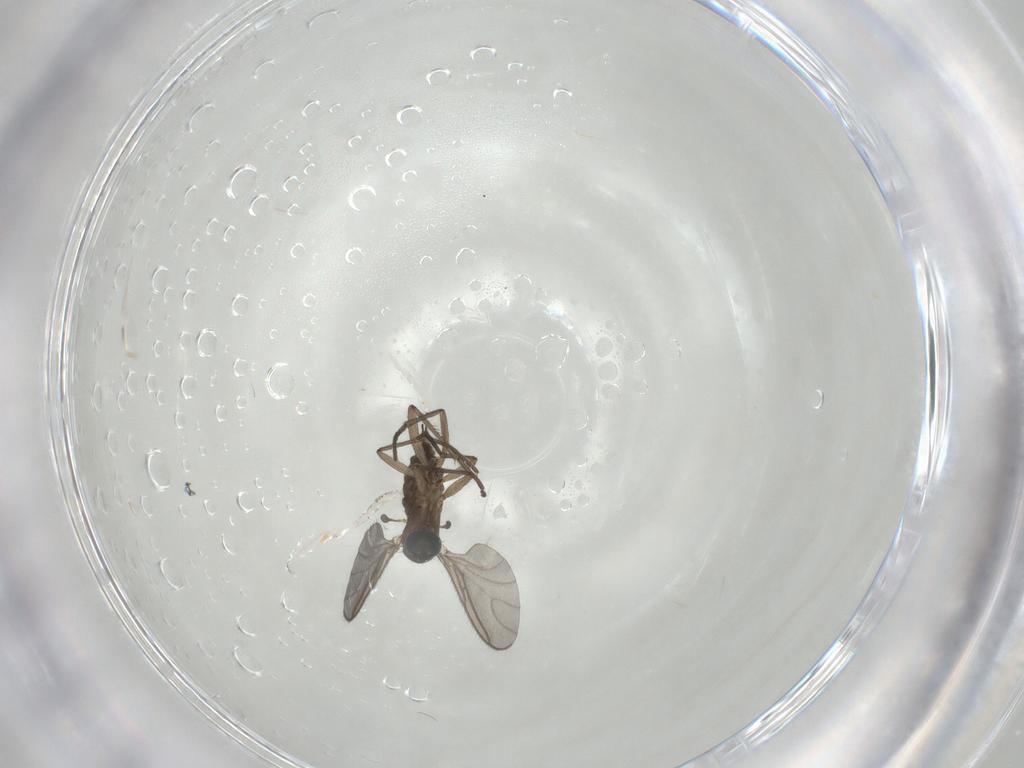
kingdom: Animalia
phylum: Arthropoda
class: Insecta
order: Diptera
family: Sciaridae
